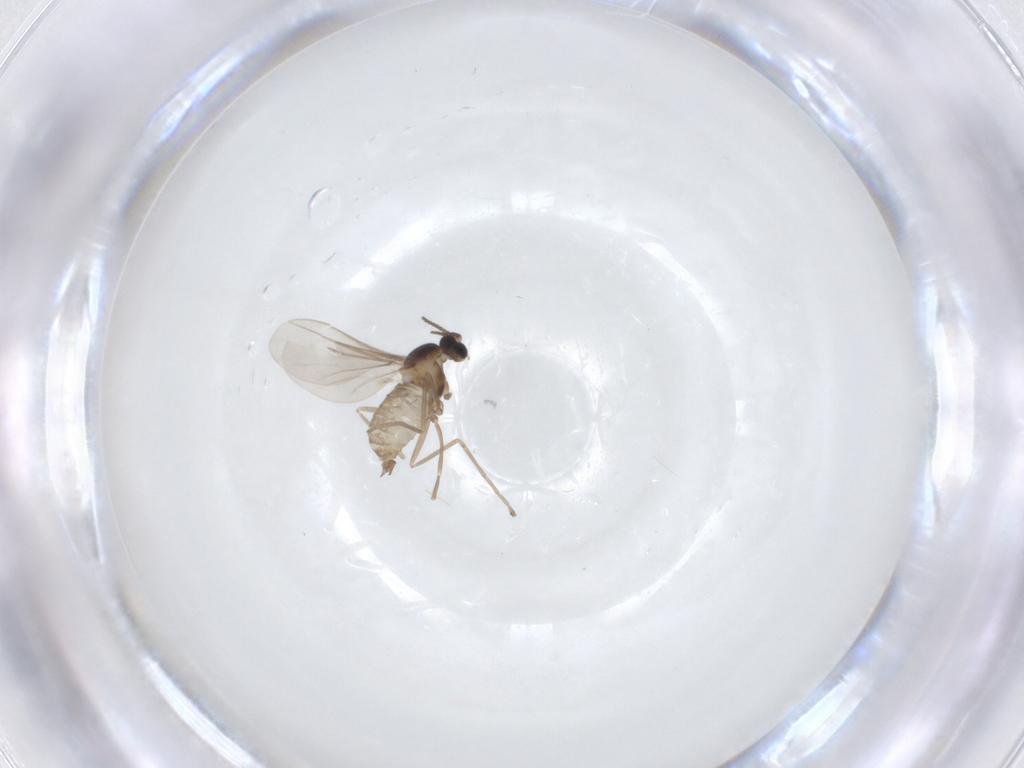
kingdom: Animalia
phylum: Arthropoda
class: Insecta
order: Diptera
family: Cecidomyiidae
